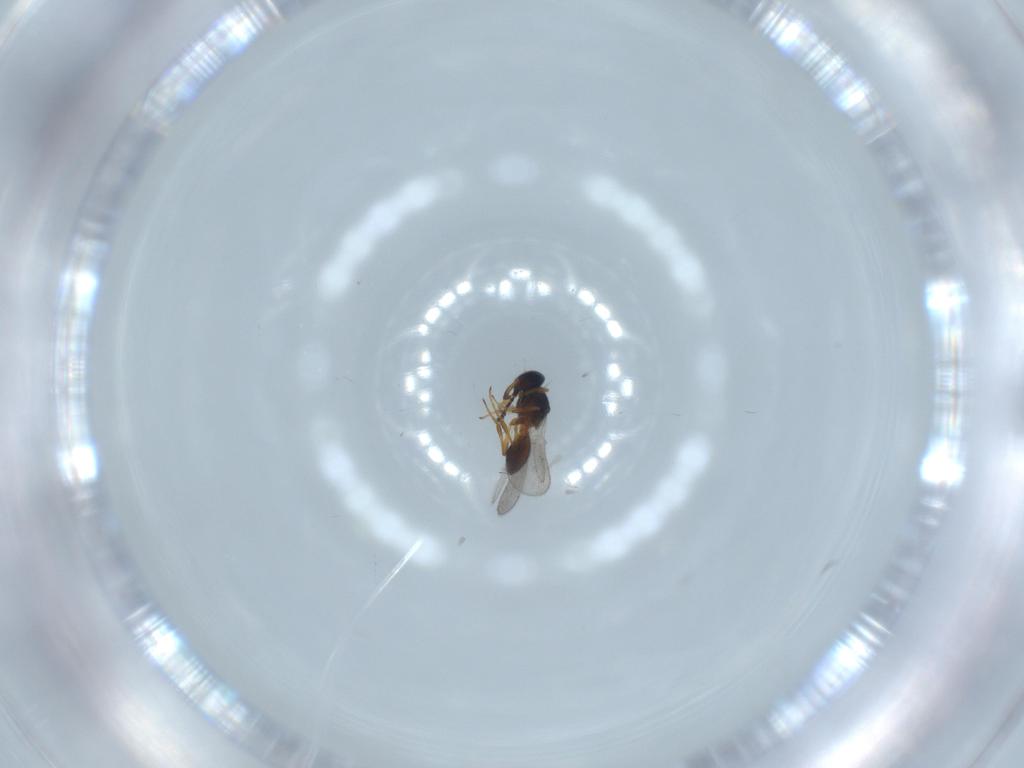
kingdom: Animalia
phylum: Arthropoda
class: Insecta
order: Hymenoptera
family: Platygastridae
